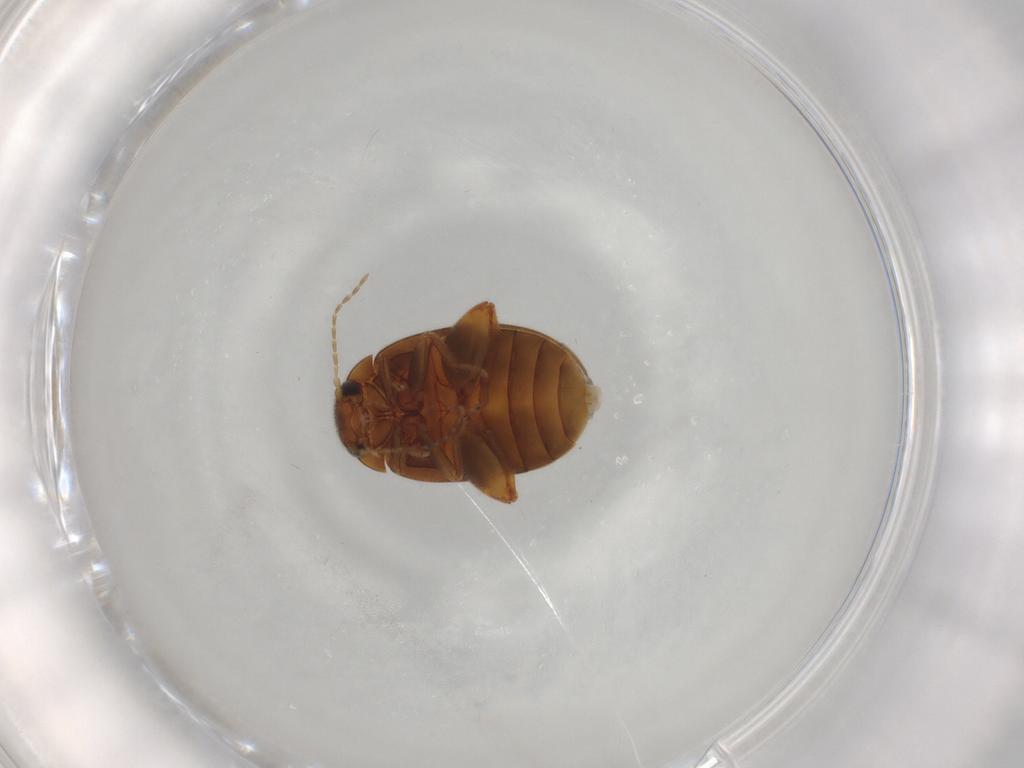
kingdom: Animalia
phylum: Arthropoda
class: Insecta
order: Coleoptera
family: Scirtidae
